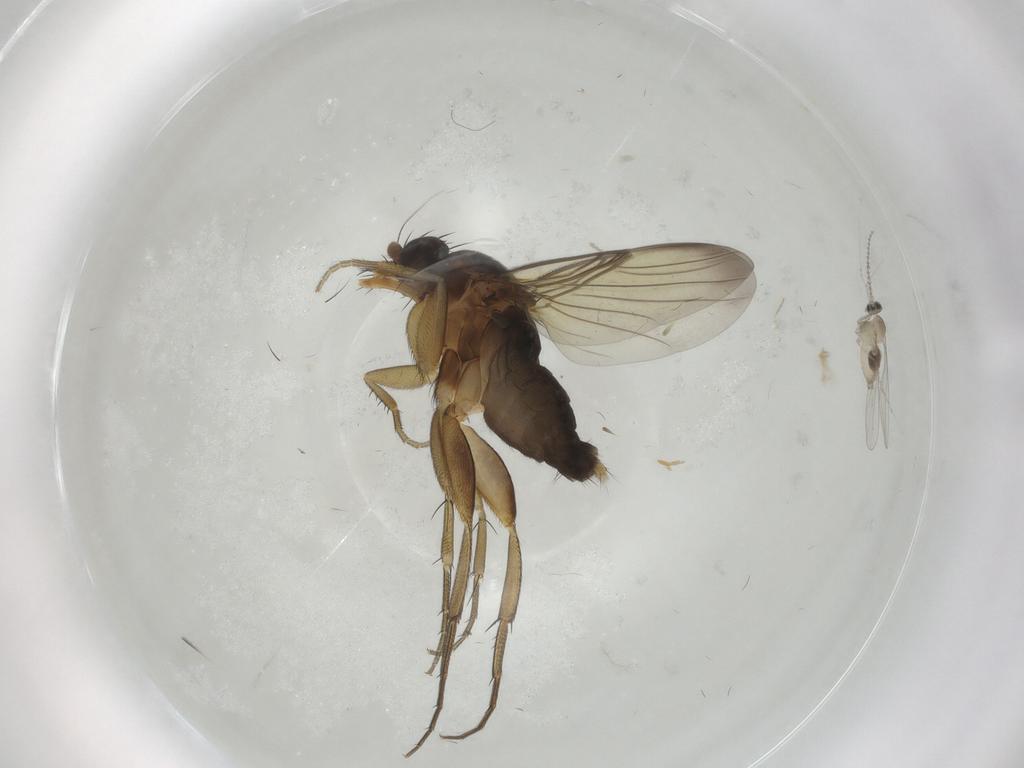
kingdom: Animalia
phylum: Arthropoda
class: Insecta
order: Diptera
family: Phoridae
